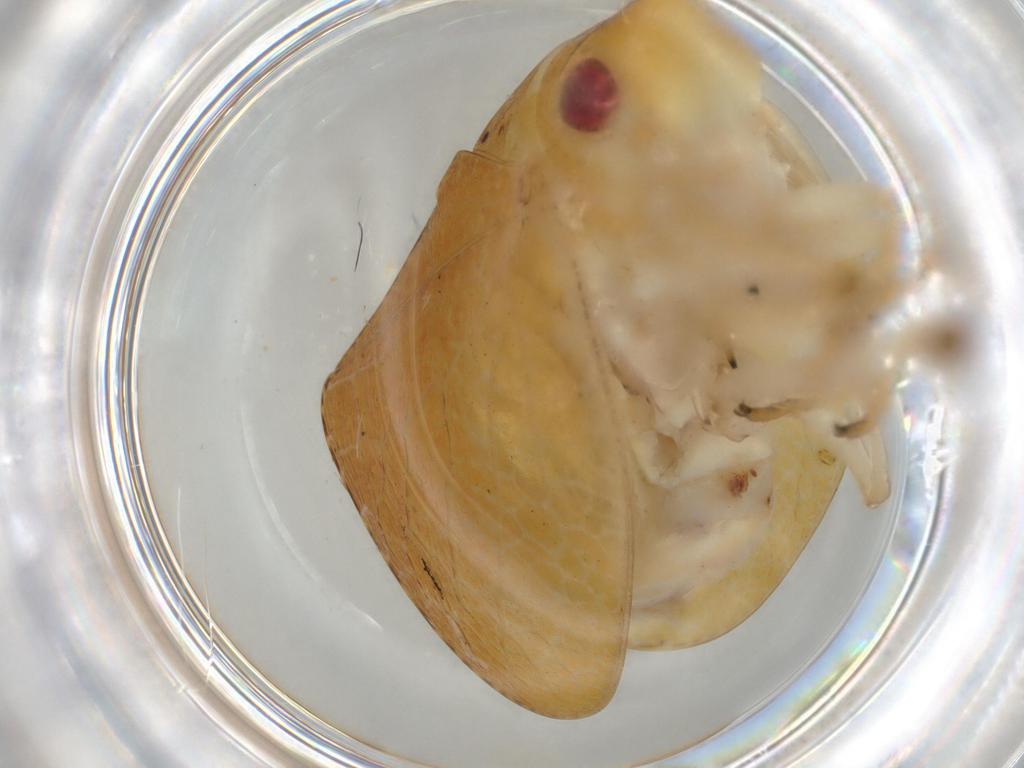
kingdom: Animalia
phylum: Arthropoda
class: Insecta
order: Hemiptera
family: Acanaloniidae
